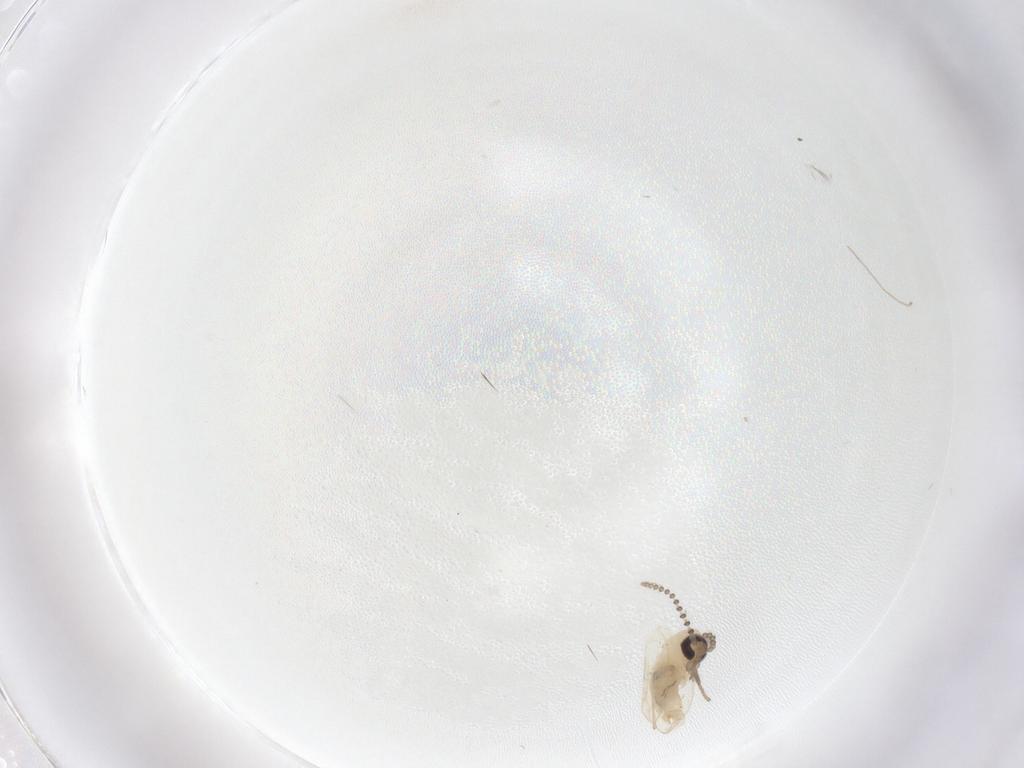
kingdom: Animalia
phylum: Arthropoda
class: Insecta
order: Diptera
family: Psychodidae
